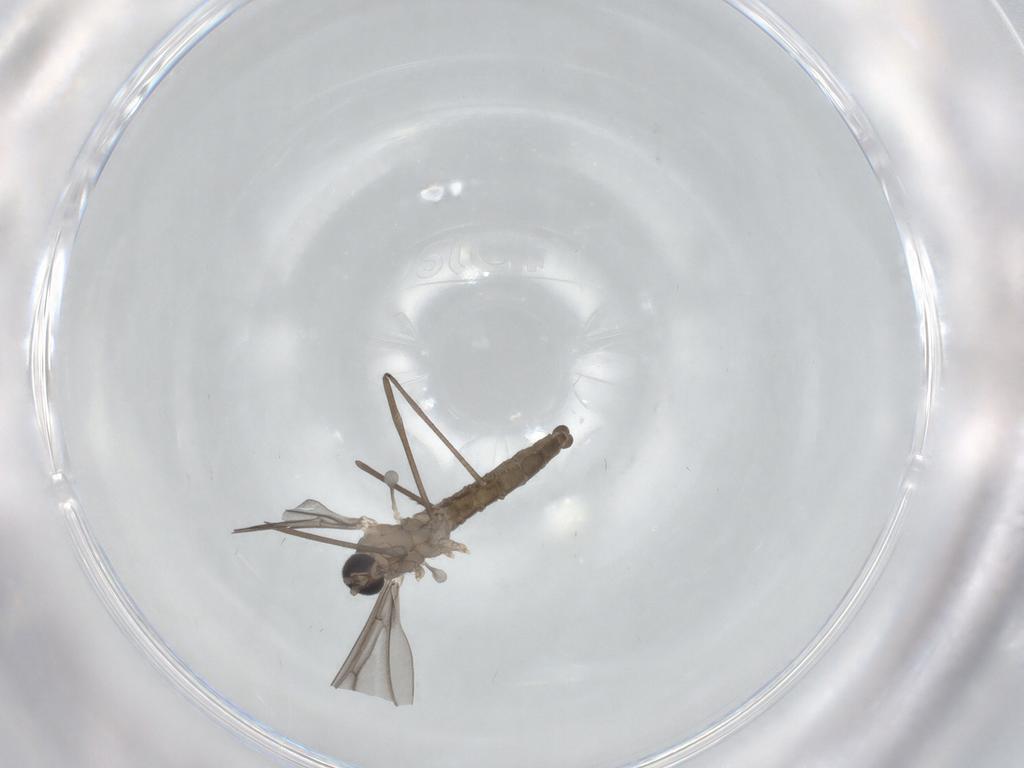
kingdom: Animalia
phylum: Arthropoda
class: Insecta
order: Diptera
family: Cecidomyiidae
